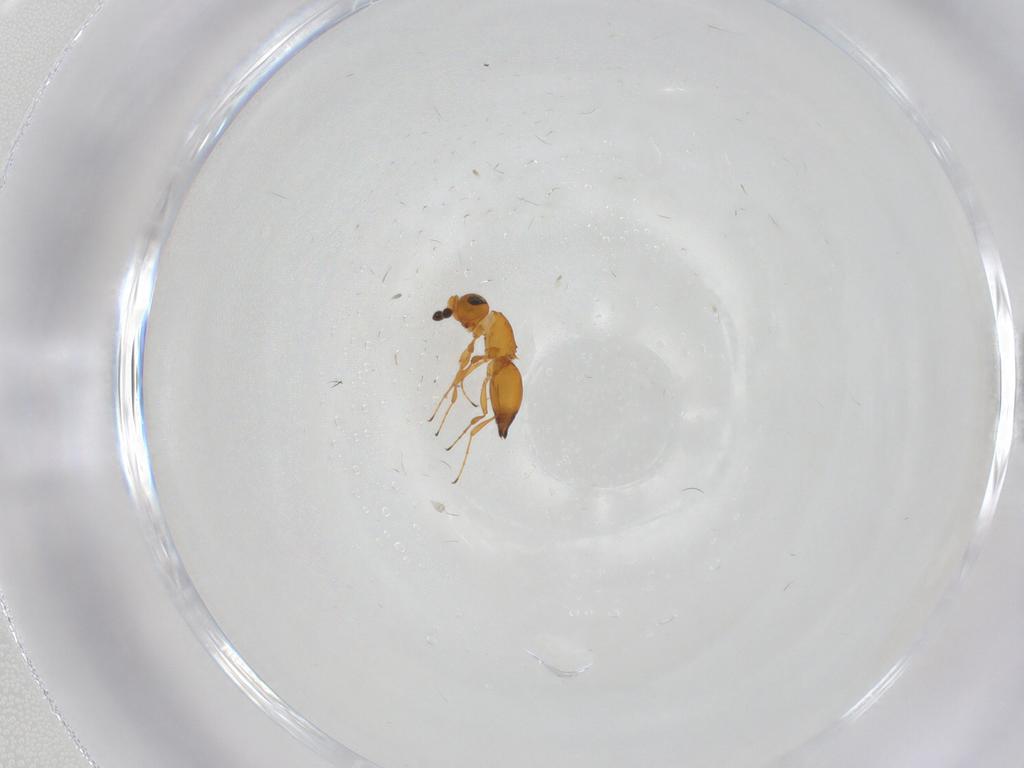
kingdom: Animalia
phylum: Arthropoda
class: Insecta
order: Hymenoptera
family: Platygastridae
